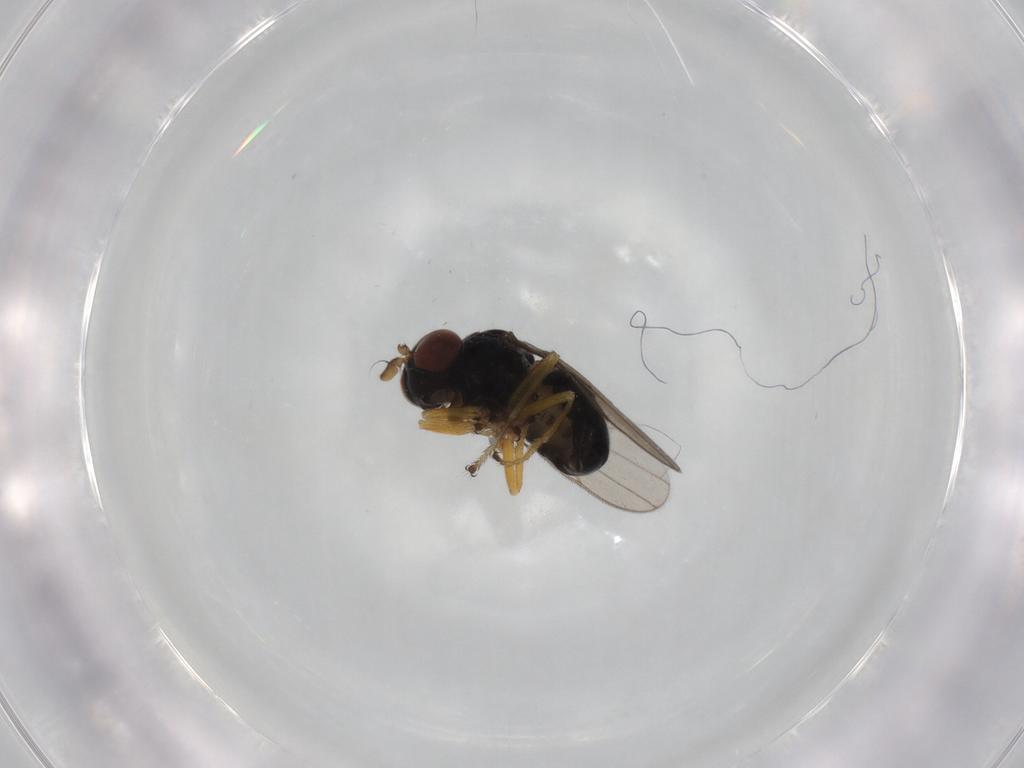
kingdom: Animalia
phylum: Arthropoda
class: Insecta
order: Diptera
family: Ephydridae
